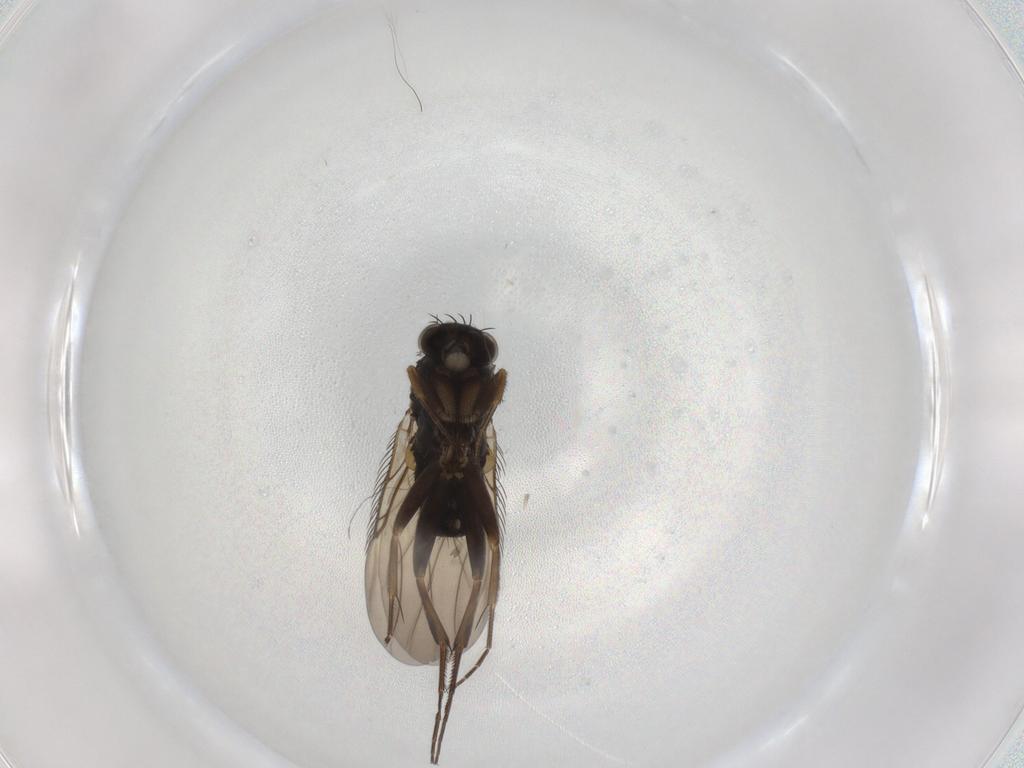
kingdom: Animalia
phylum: Arthropoda
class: Insecta
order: Diptera
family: Phoridae
